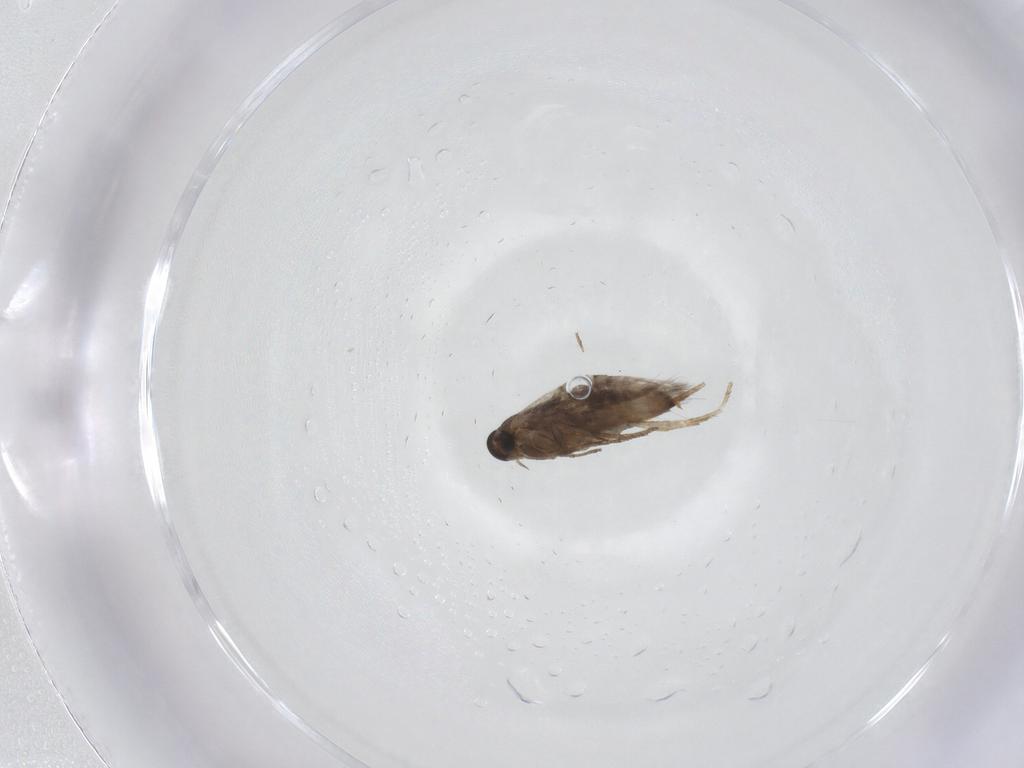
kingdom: Animalia
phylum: Arthropoda
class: Insecta
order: Lepidoptera
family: Heliozelidae
